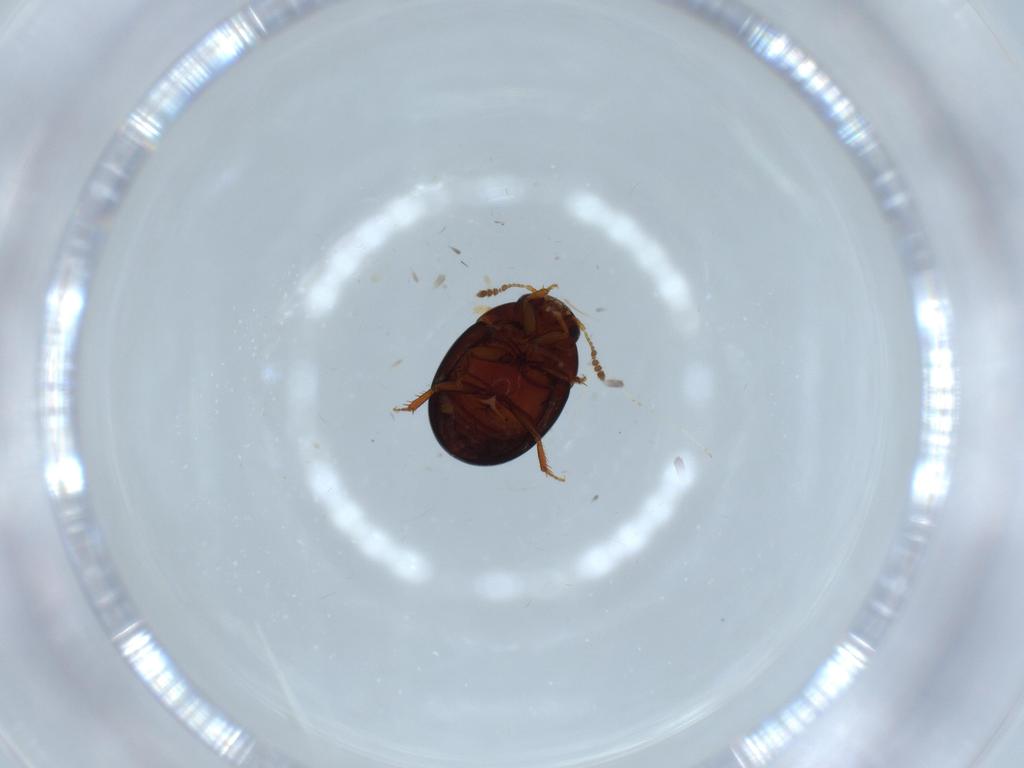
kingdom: Animalia
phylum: Arthropoda
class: Insecta
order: Coleoptera
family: Leiodidae
